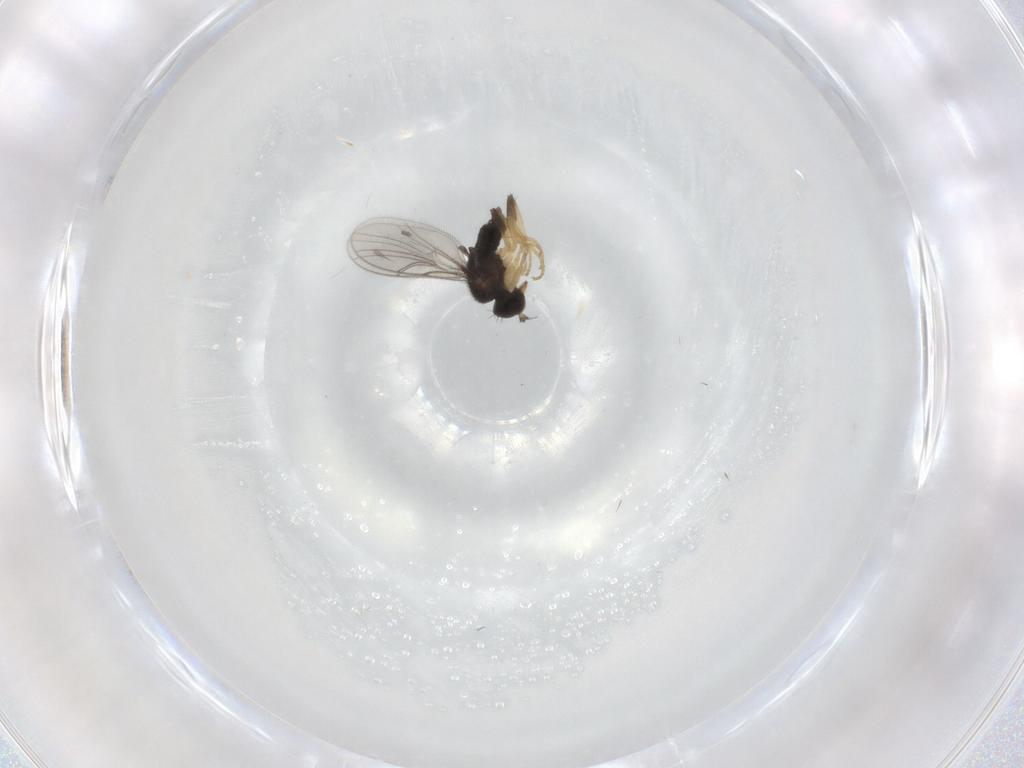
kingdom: Animalia
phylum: Arthropoda
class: Insecta
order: Diptera
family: Hybotidae
